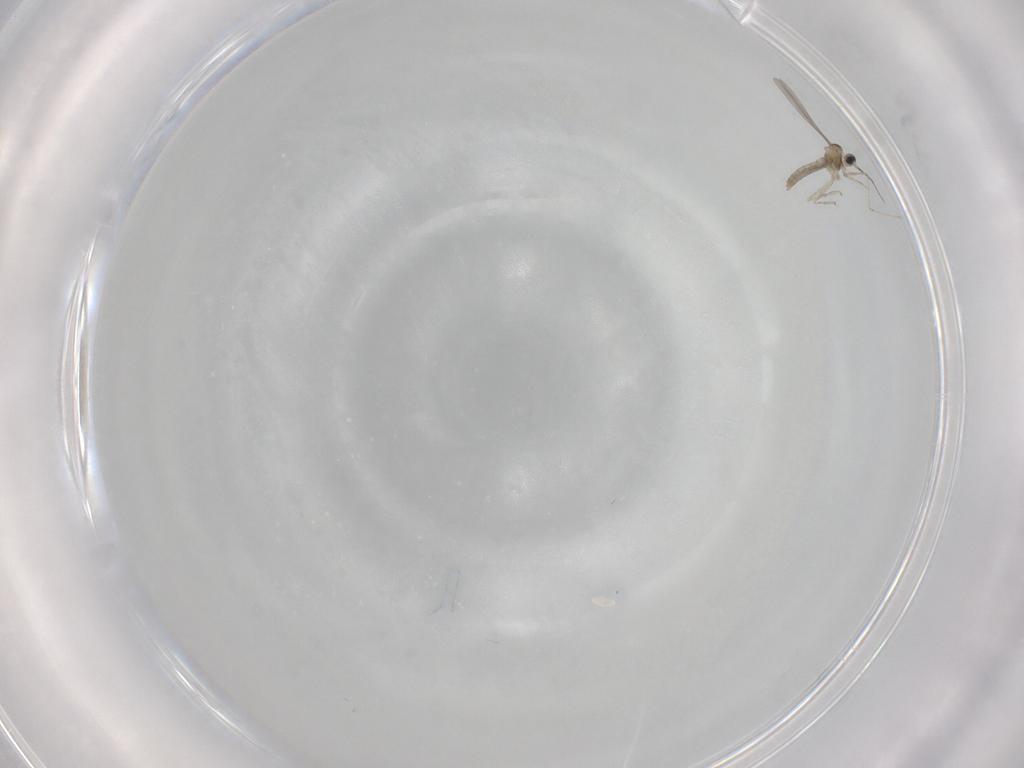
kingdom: Animalia
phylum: Arthropoda
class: Insecta
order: Diptera
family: Cecidomyiidae
